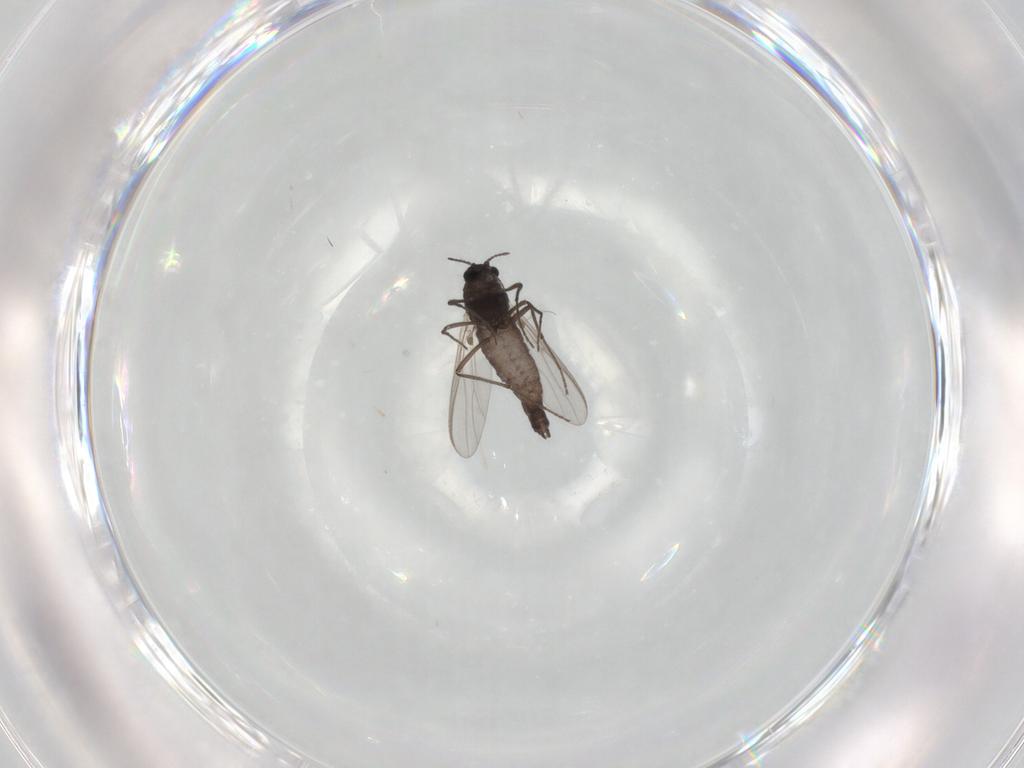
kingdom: Animalia
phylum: Arthropoda
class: Insecta
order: Diptera
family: Chironomidae
